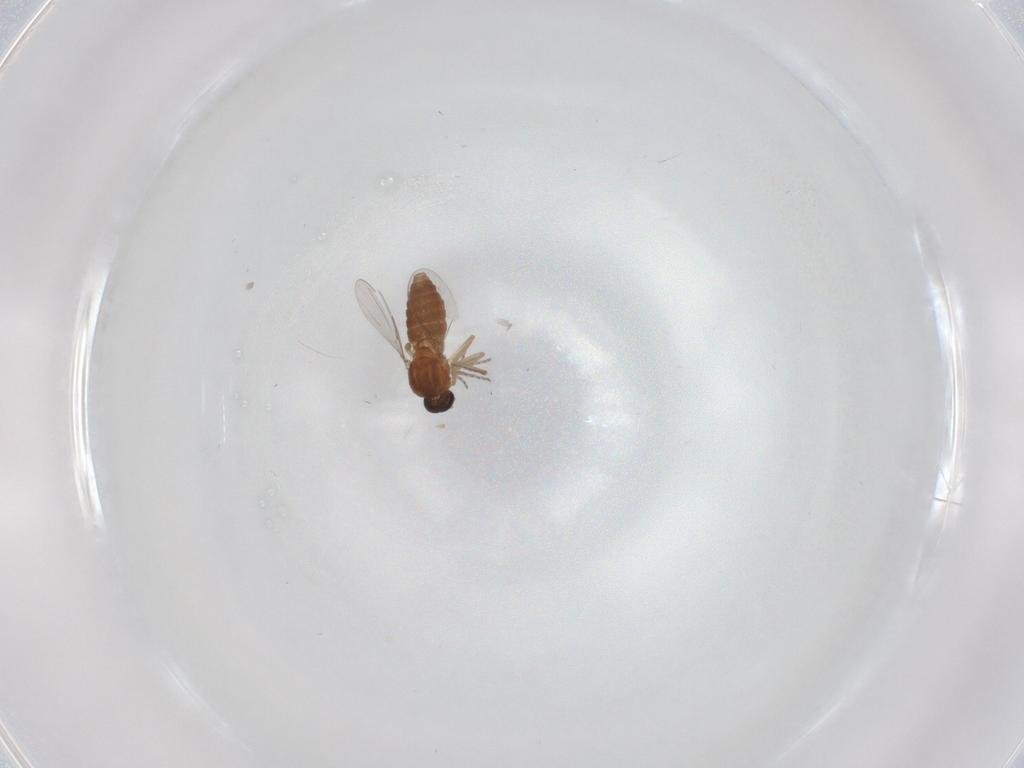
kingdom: Animalia
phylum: Arthropoda
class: Insecta
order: Diptera
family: Ceratopogonidae
